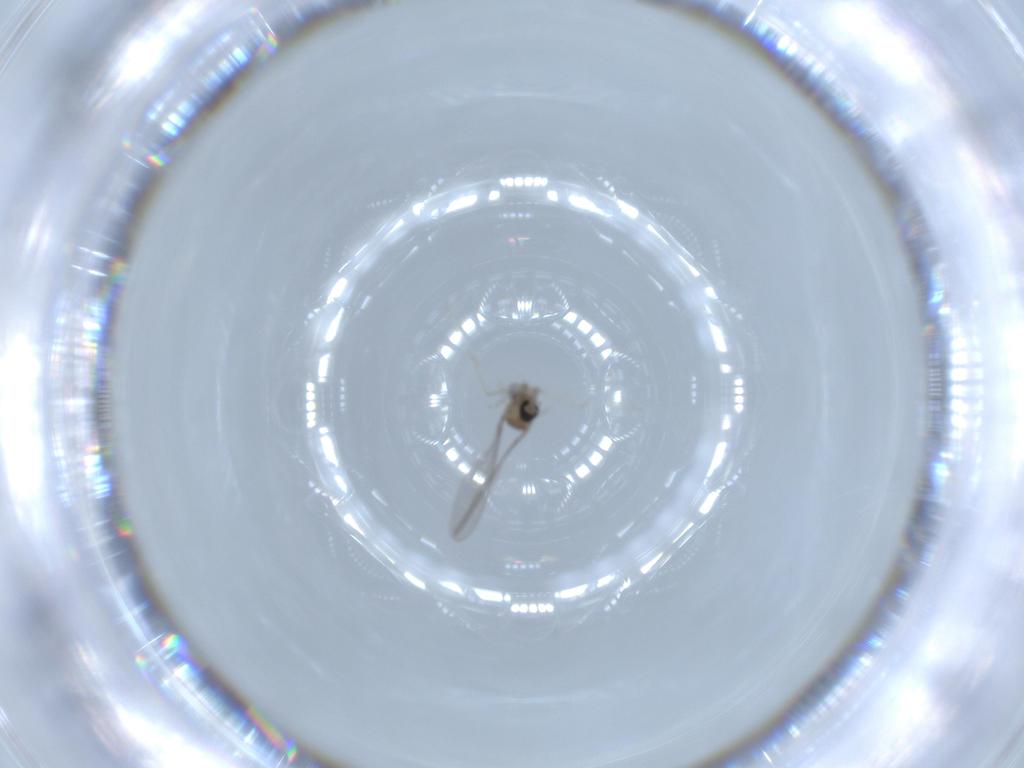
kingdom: Animalia
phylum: Arthropoda
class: Insecta
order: Diptera
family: Cecidomyiidae
